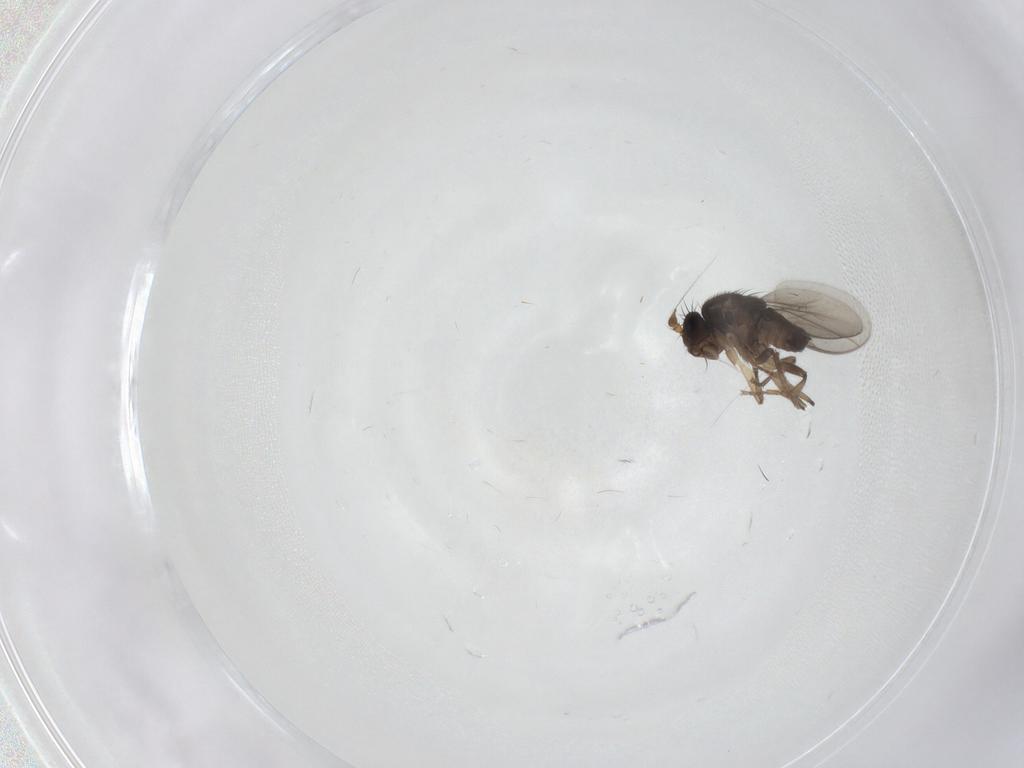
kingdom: Animalia
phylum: Arthropoda
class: Insecta
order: Diptera
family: Sphaeroceridae
